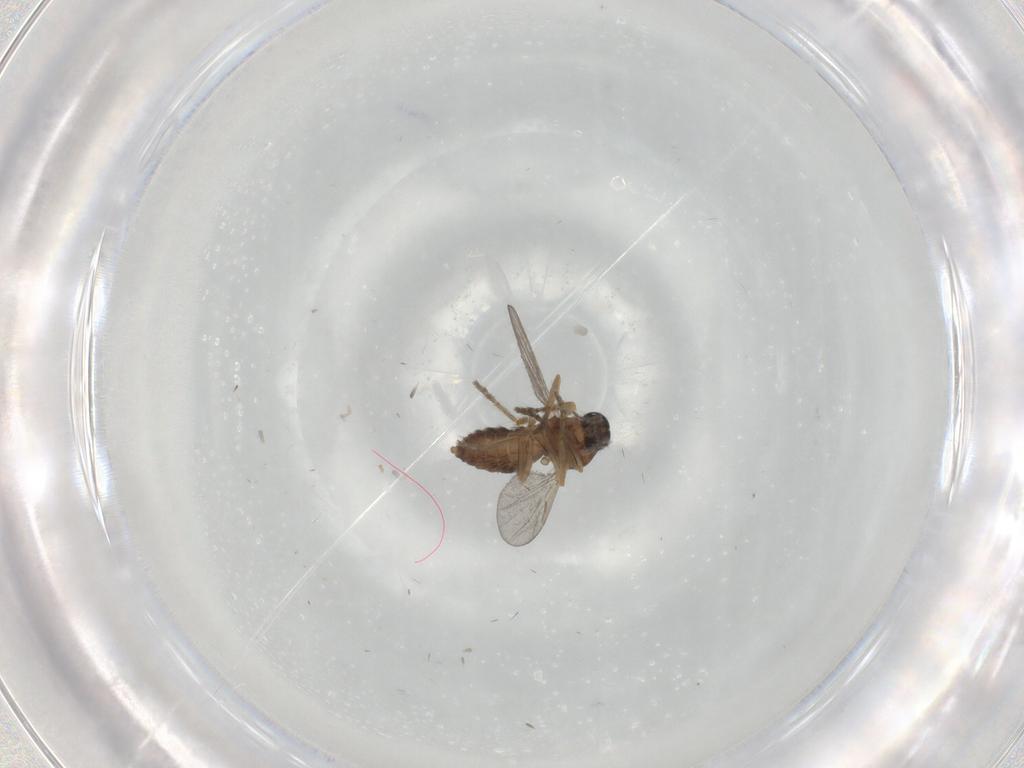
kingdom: Animalia
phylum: Arthropoda
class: Insecta
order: Diptera
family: Ceratopogonidae
